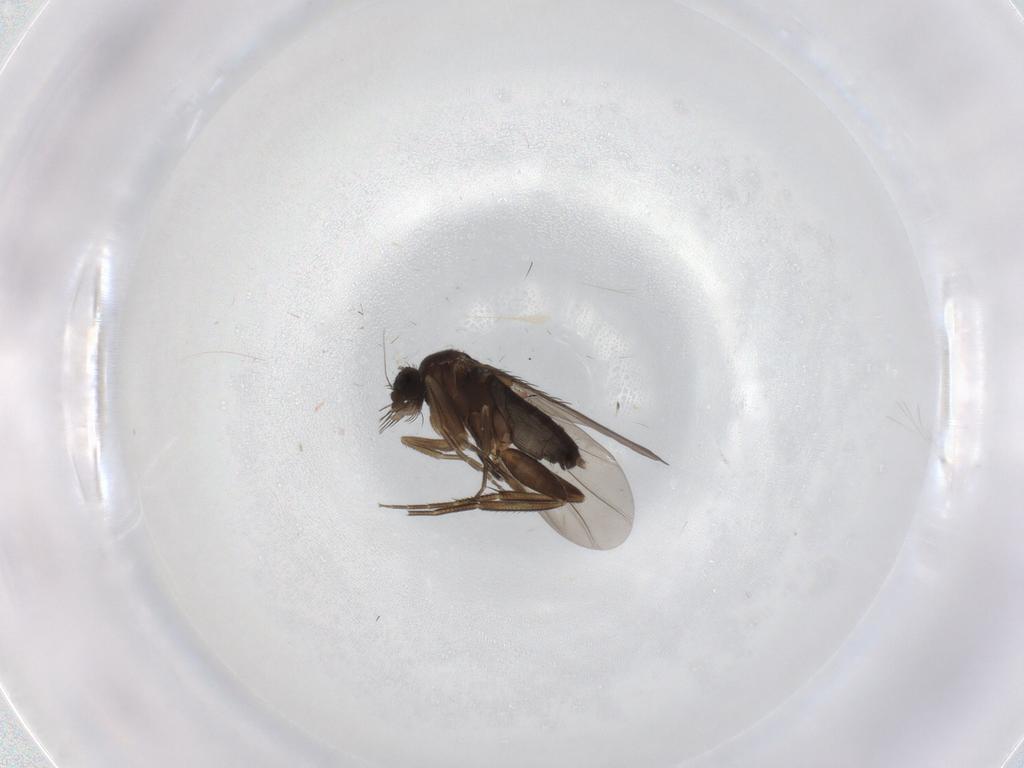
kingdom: Animalia
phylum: Arthropoda
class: Insecta
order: Diptera
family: Phoridae
